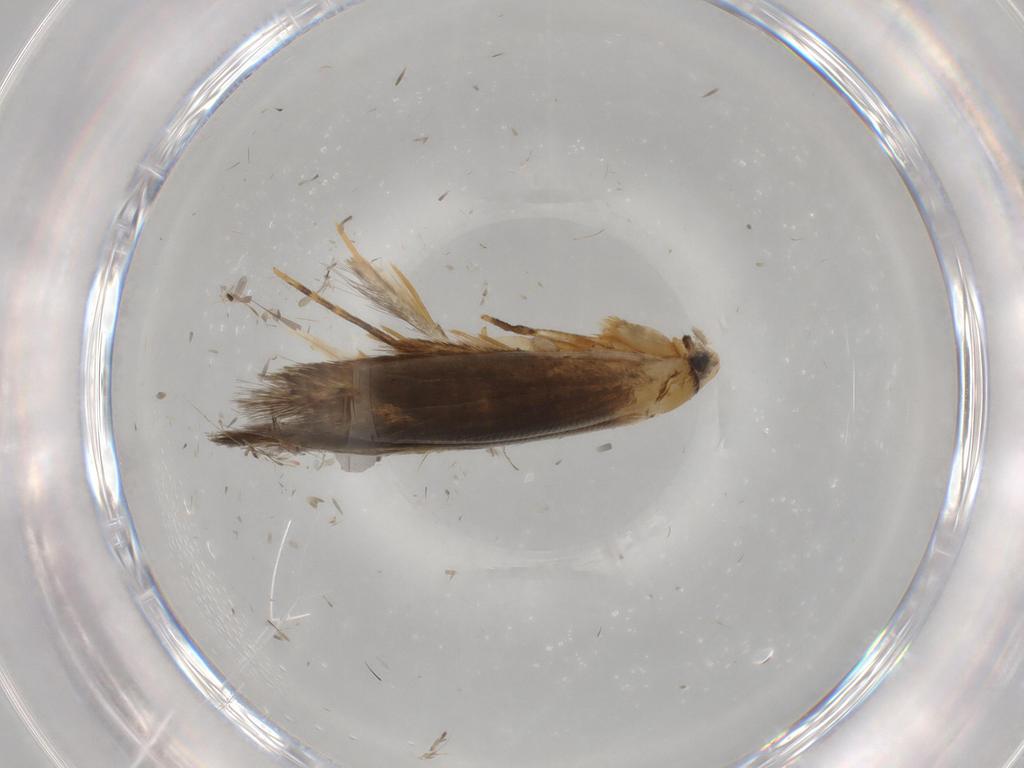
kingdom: Animalia
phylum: Arthropoda
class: Insecta
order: Lepidoptera
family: Tineidae
